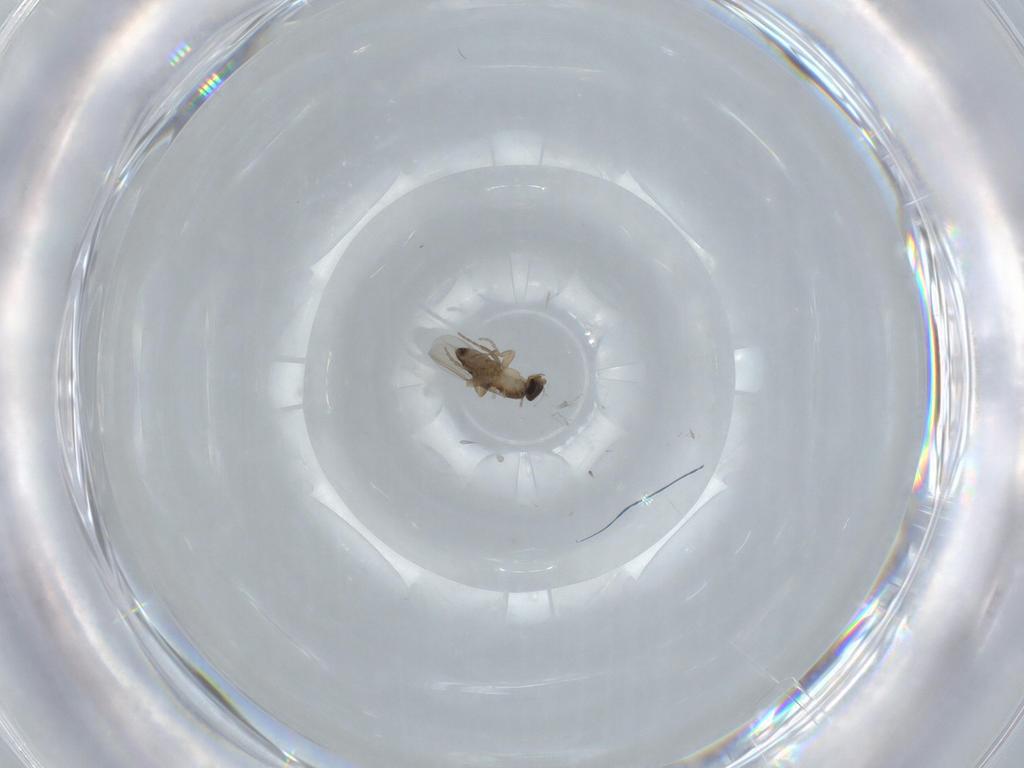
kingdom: Animalia
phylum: Arthropoda
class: Insecta
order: Diptera
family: Phoridae
